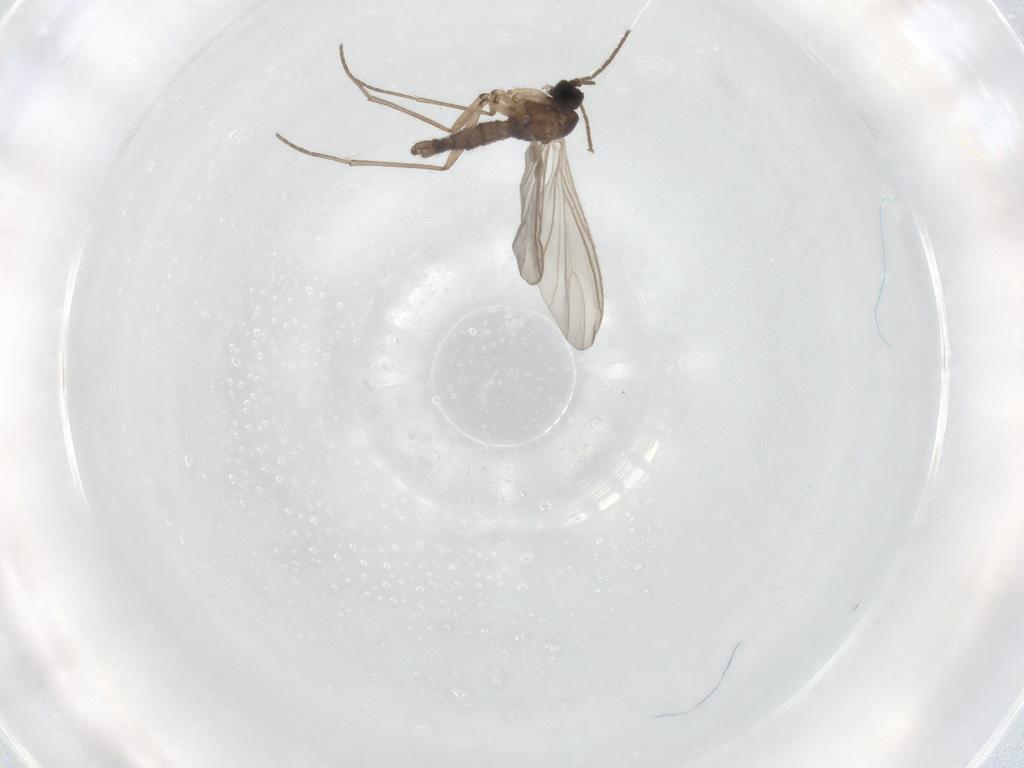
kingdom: Animalia
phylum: Arthropoda
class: Insecta
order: Diptera
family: Sciaridae
